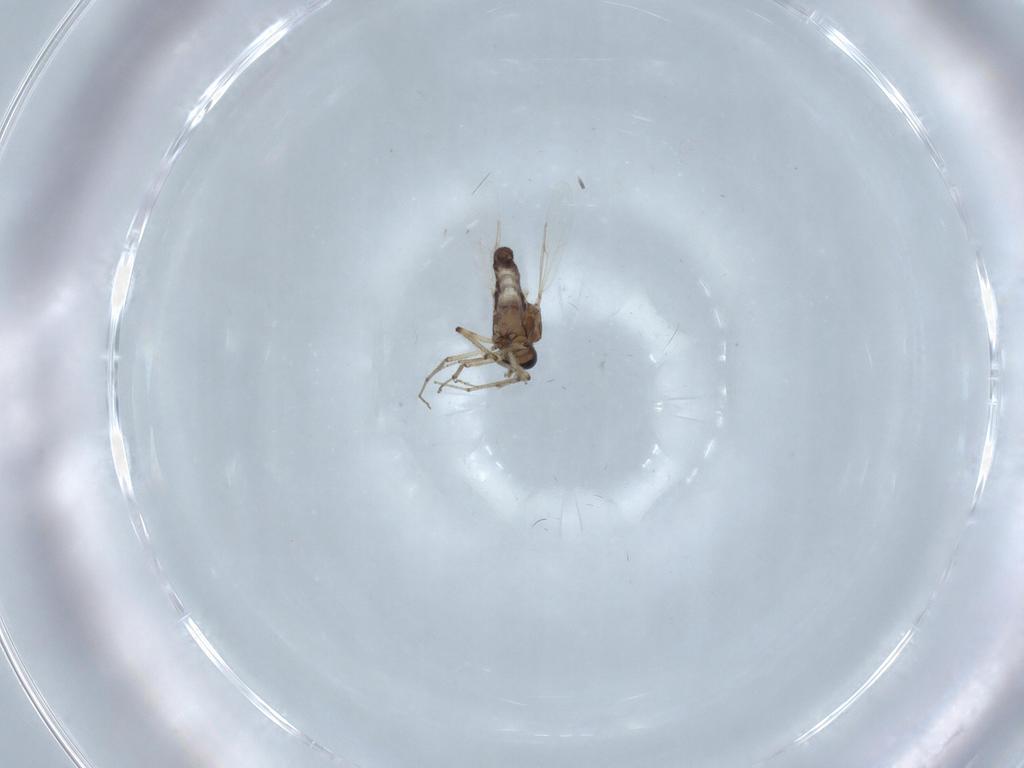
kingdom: Animalia
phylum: Arthropoda
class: Insecta
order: Diptera
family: Ceratopogonidae
